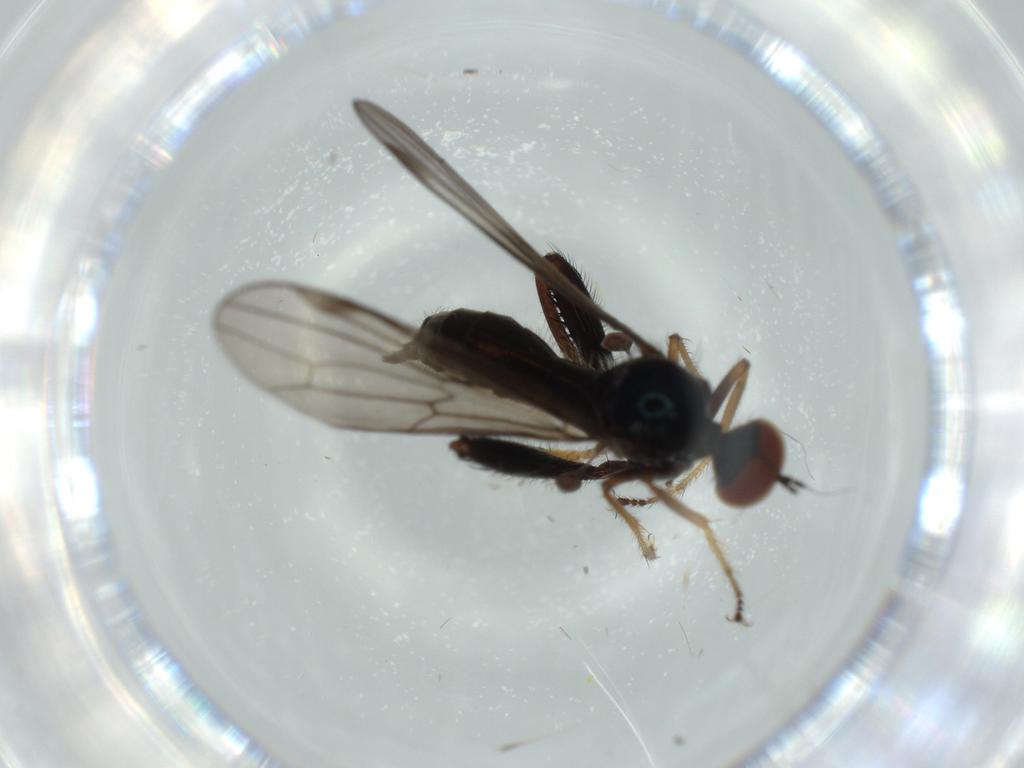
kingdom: Animalia
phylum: Arthropoda
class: Insecta
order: Diptera
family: Hybotidae
